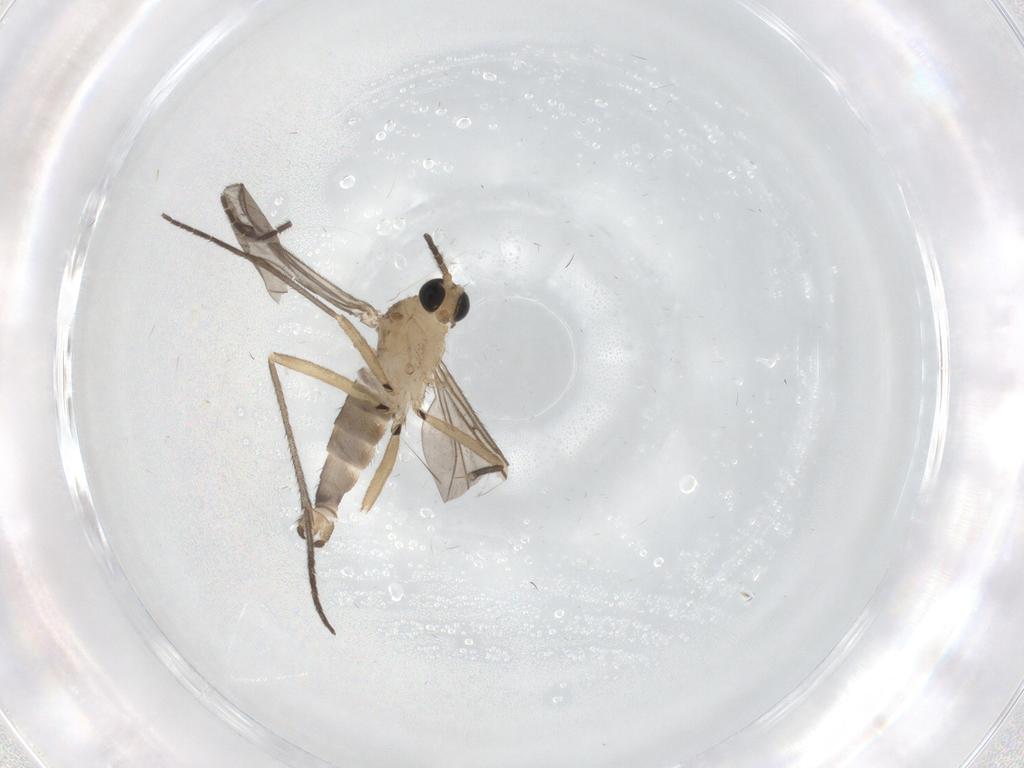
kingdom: Animalia
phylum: Arthropoda
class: Insecta
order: Diptera
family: Sciaridae
